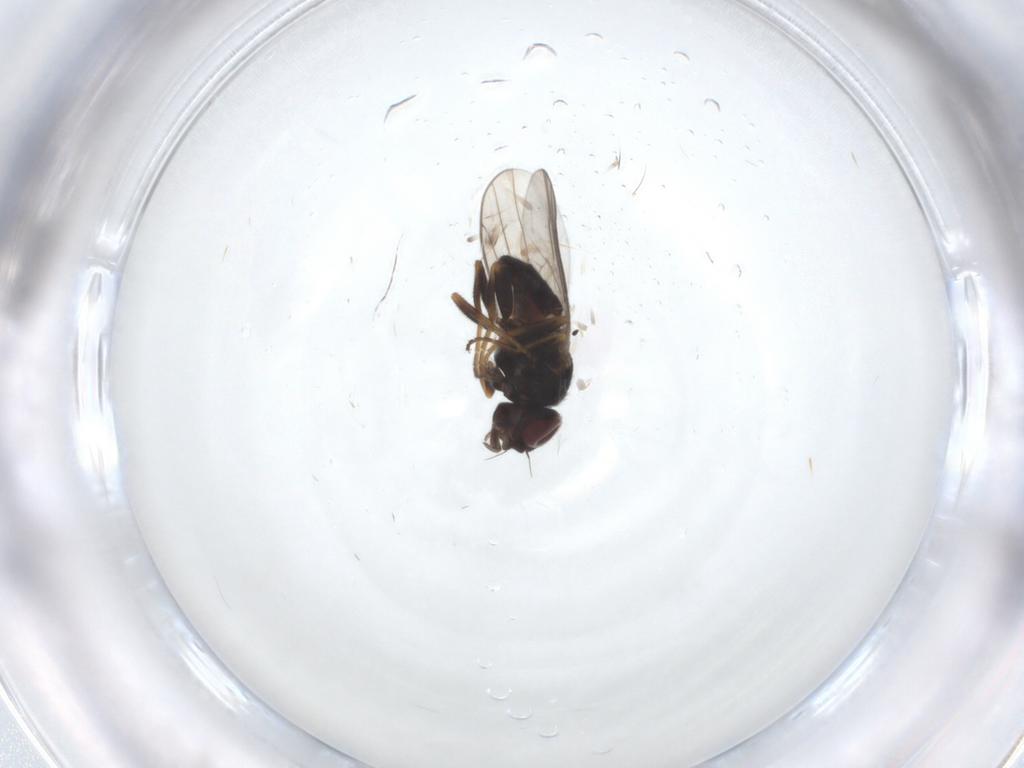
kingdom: Animalia
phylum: Arthropoda
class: Insecta
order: Diptera
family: Chloropidae
